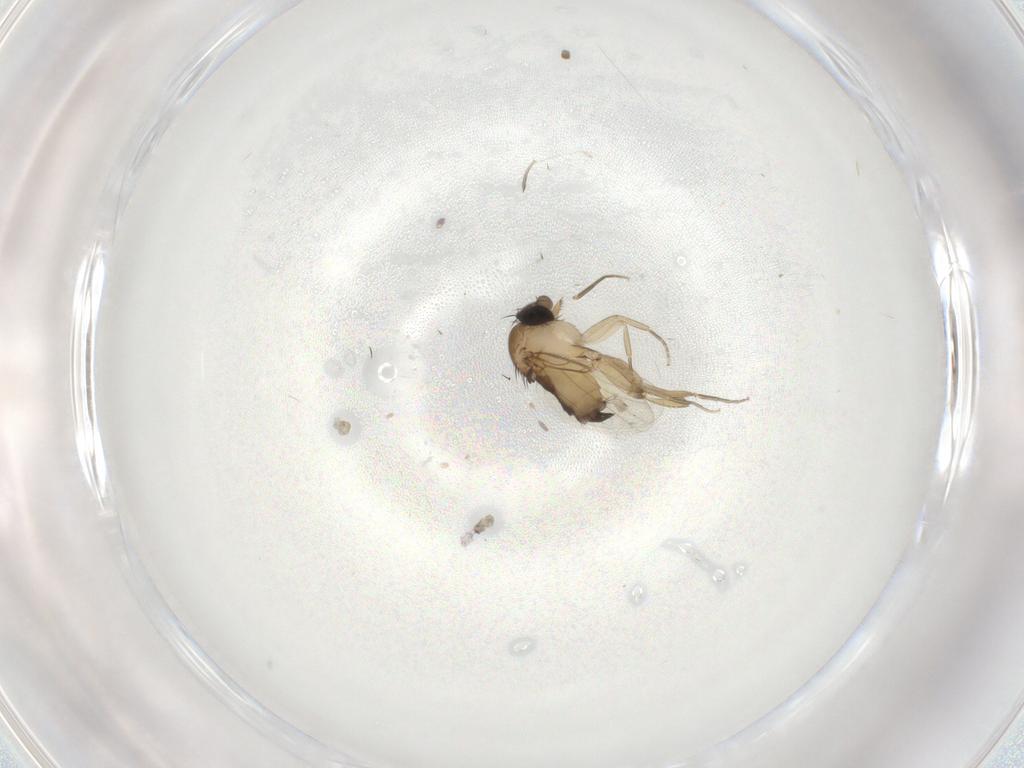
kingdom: Animalia
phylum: Arthropoda
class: Insecta
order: Diptera
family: Phoridae
